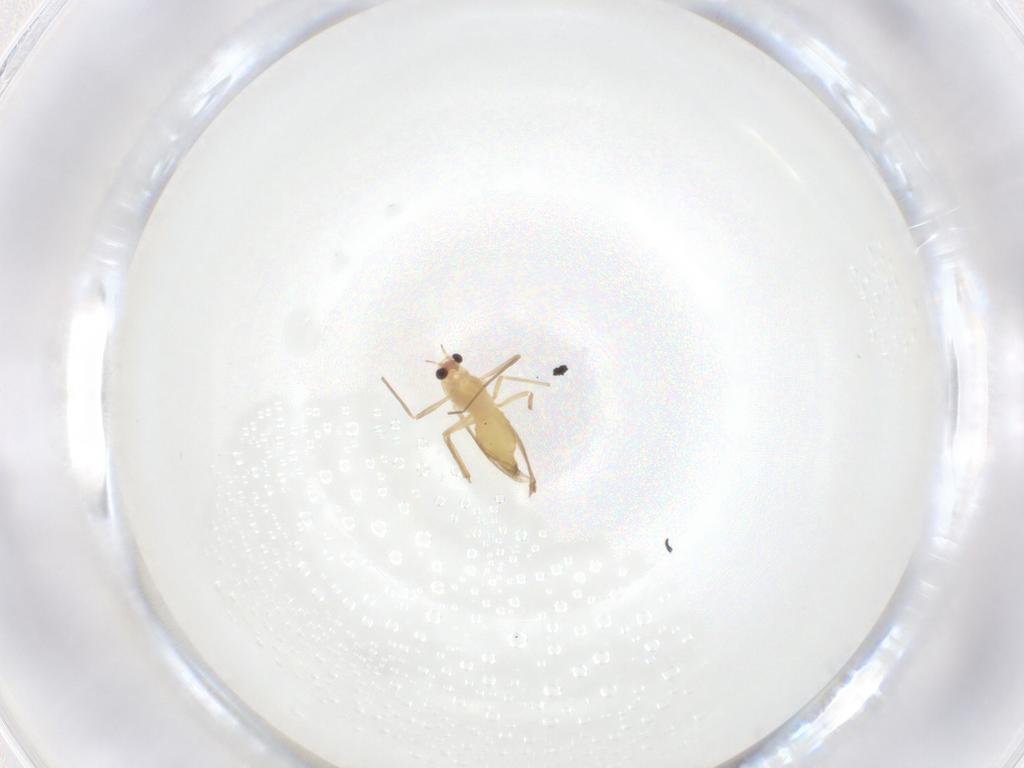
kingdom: Animalia
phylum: Arthropoda
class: Insecta
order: Diptera
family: Chironomidae
